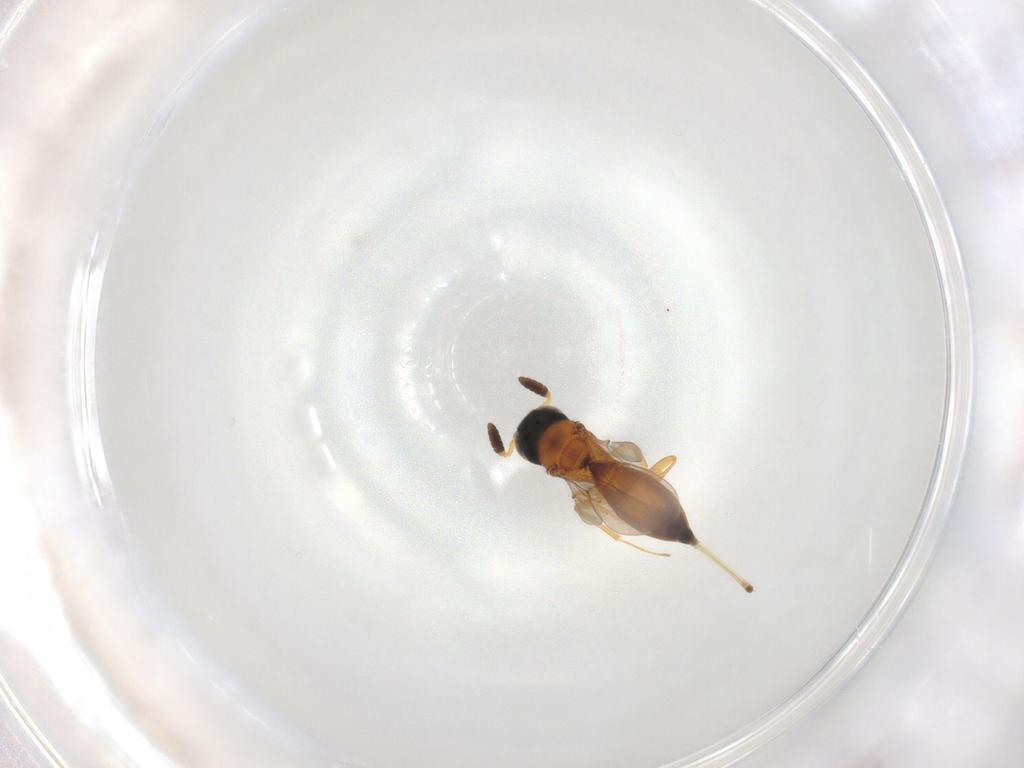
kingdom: Animalia
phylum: Arthropoda
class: Insecta
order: Hymenoptera
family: Scelionidae
